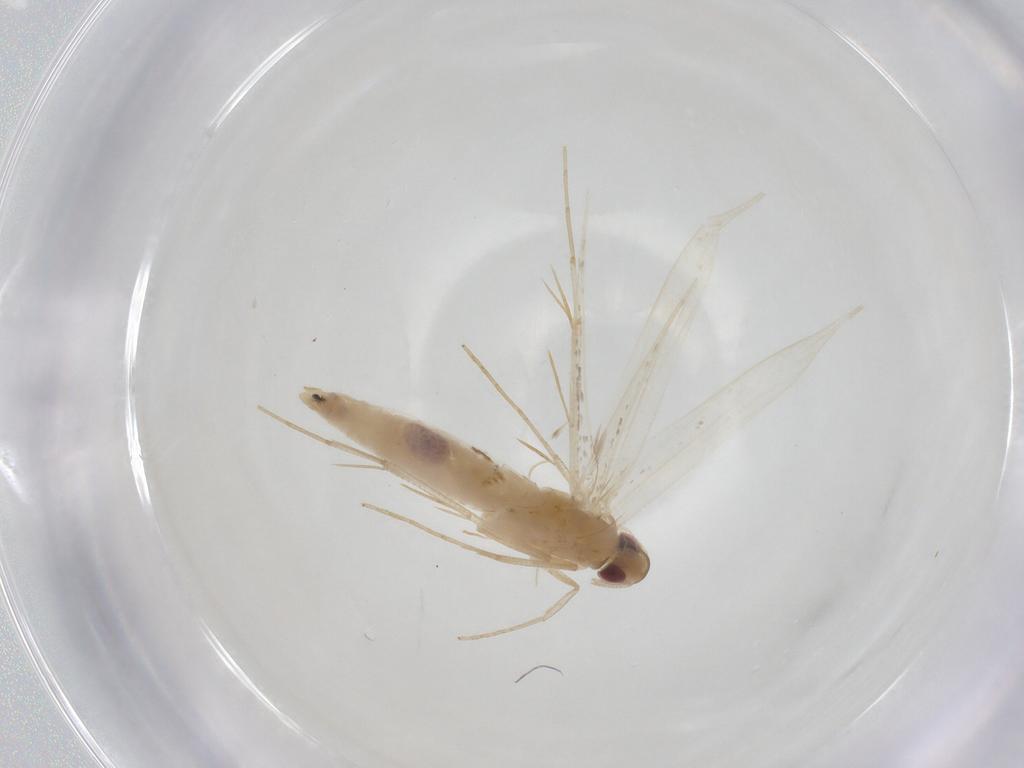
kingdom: Animalia
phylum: Arthropoda
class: Insecta
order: Lepidoptera
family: Cosmopterigidae
